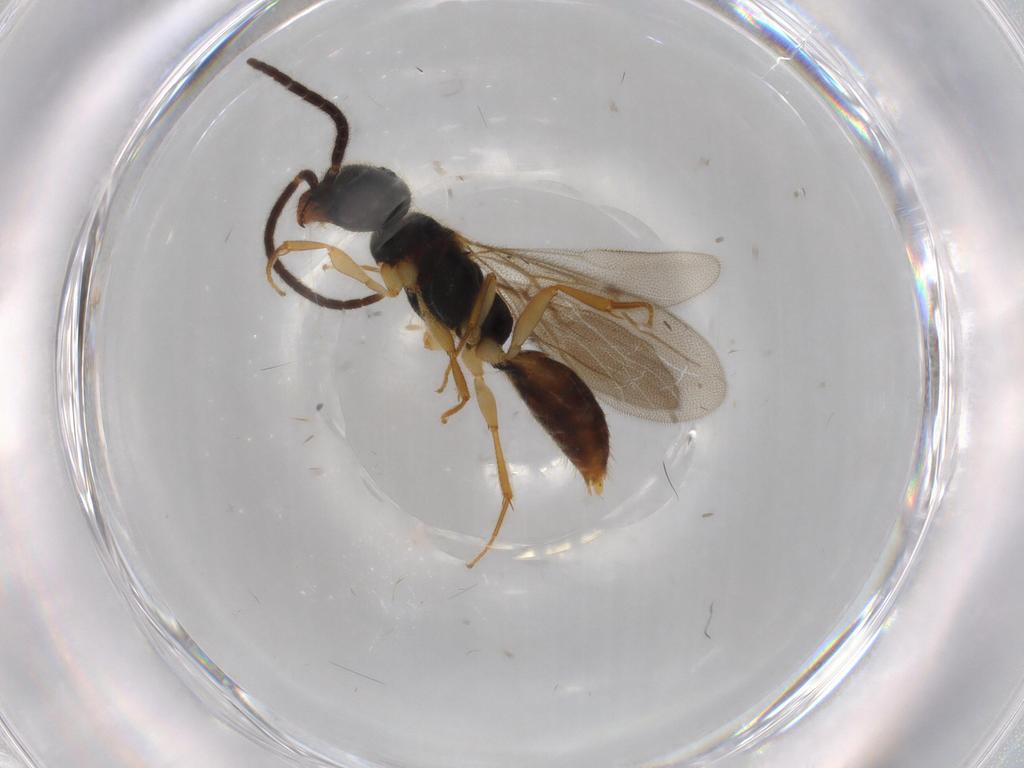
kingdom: Animalia
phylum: Arthropoda
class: Insecta
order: Hymenoptera
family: Bethylidae
